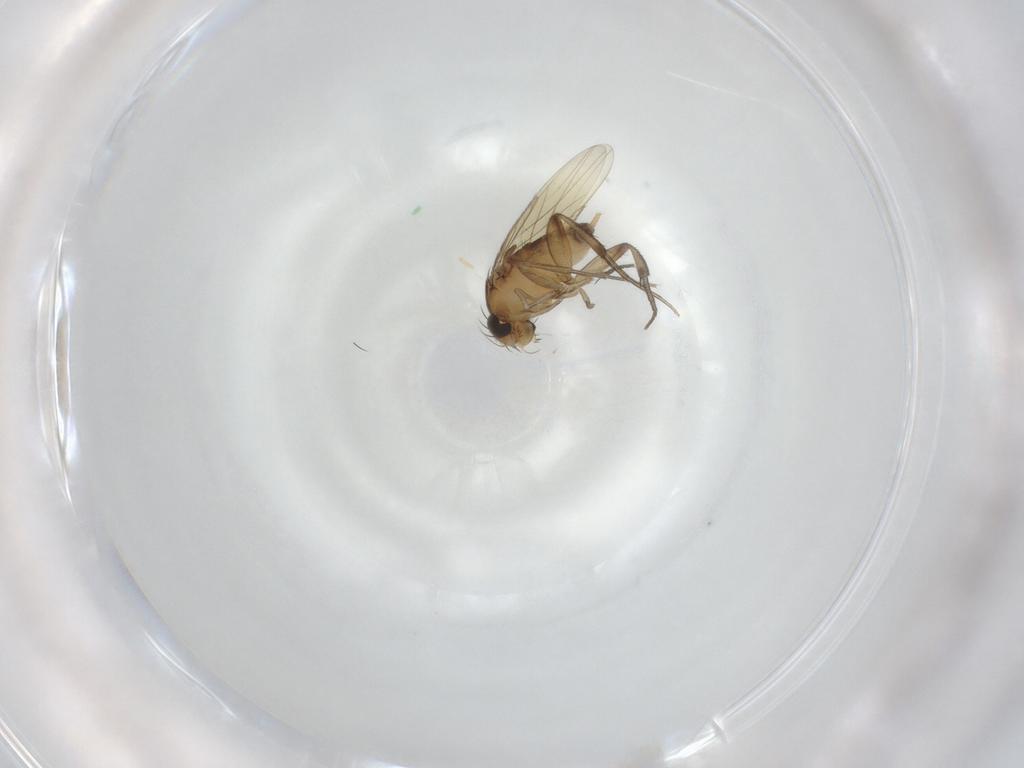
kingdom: Animalia
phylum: Arthropoda
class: Insecta
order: Diptera
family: Phoridae
